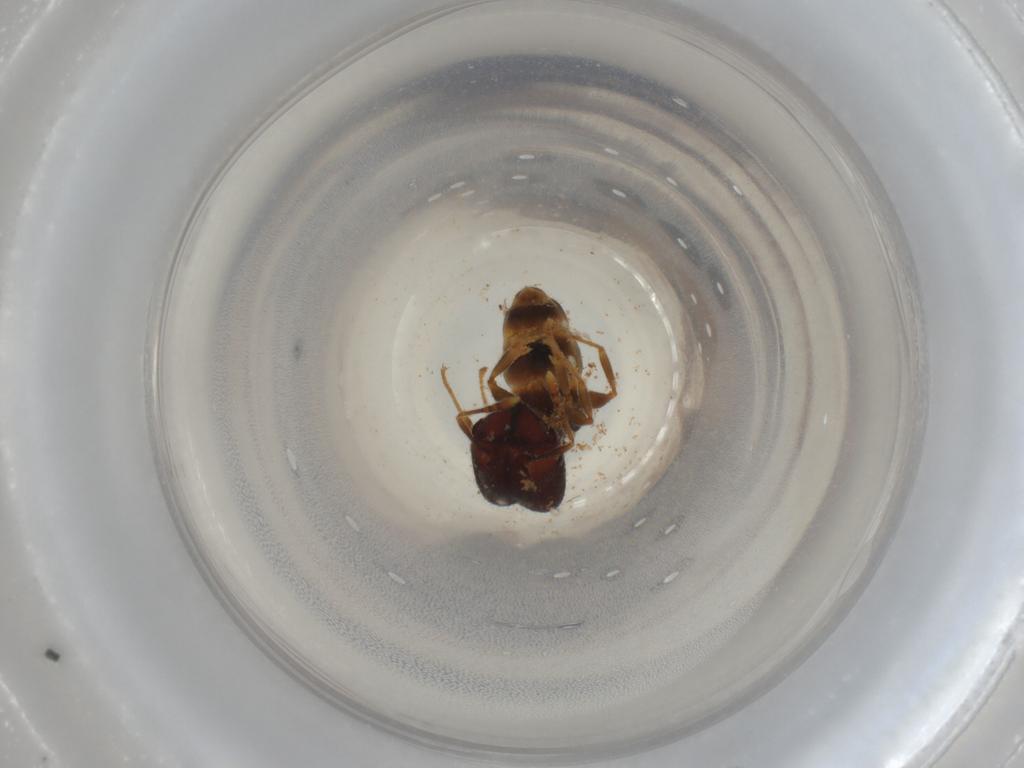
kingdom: Animalia
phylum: Arthropoda
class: Insecta
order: Hymenoptera
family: Formicidae
